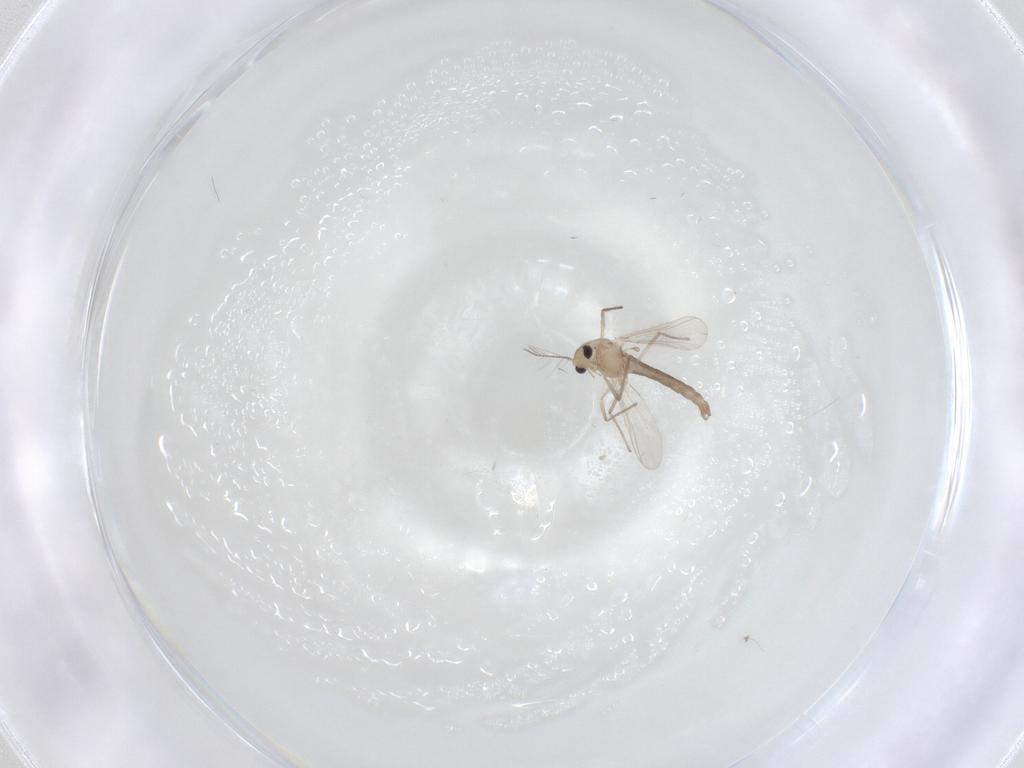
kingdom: Animalia
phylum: Arthropoda
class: Insecta
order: Diptera
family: Chironomidae
